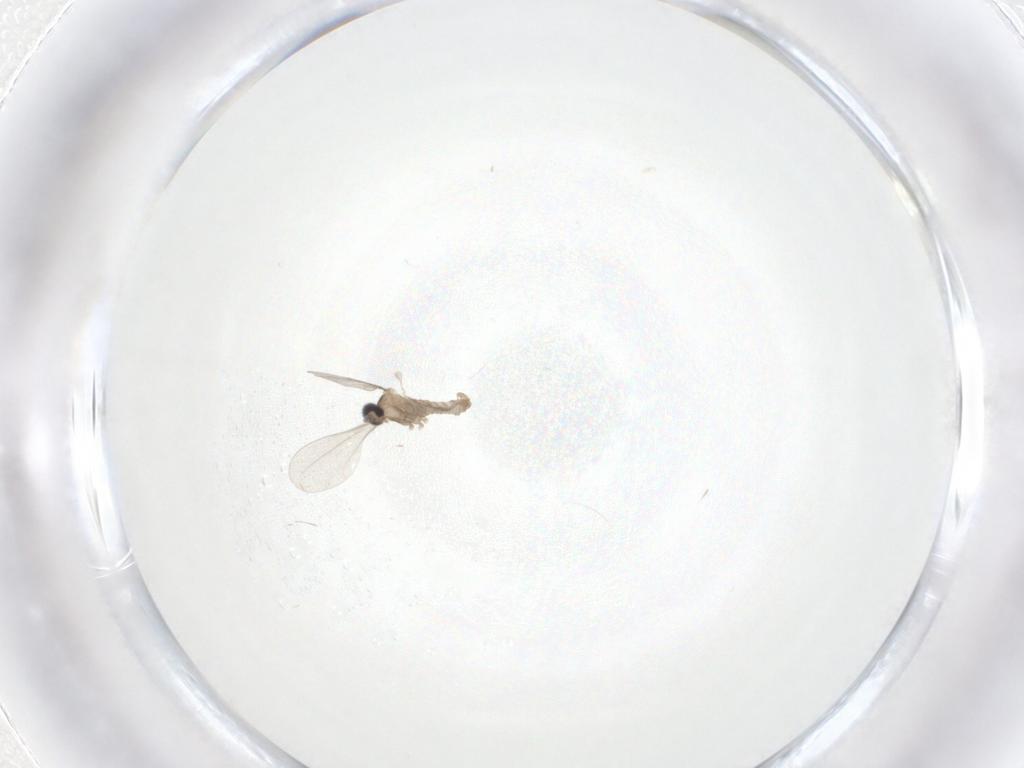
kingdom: Animalia
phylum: Arthropoda
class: Insecta
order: Diptera
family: Cecidomyiidae
